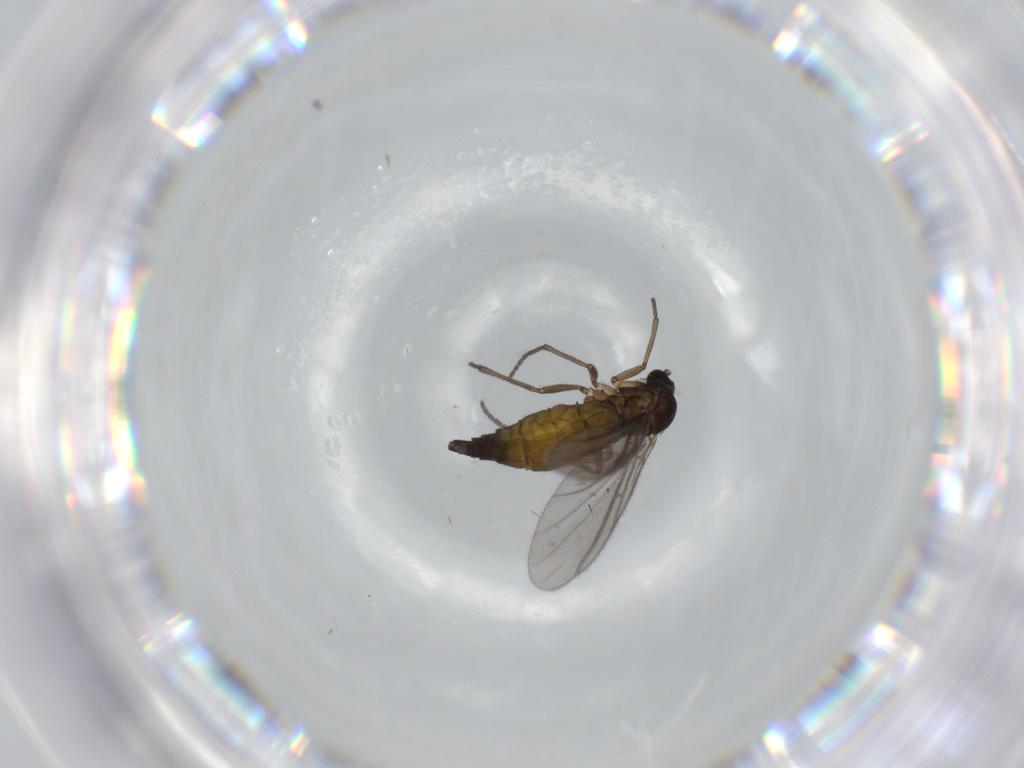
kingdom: Animalia
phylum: Arthropoda
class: Insecta
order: Diptera
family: Sciaridae
